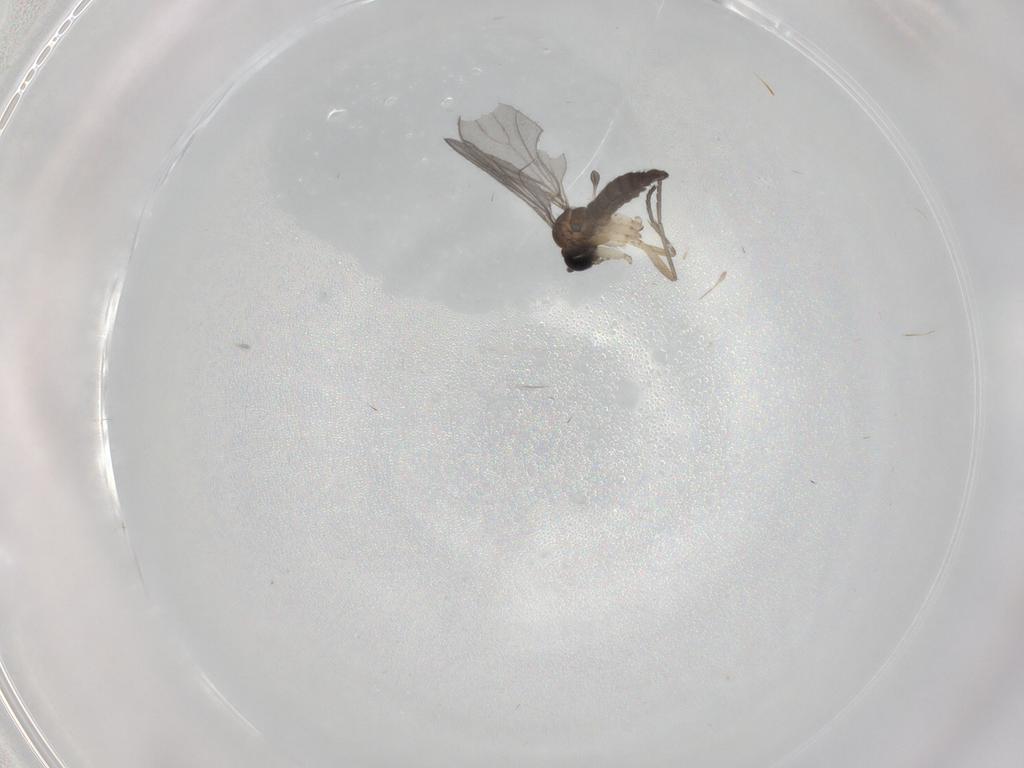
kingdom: Animalia
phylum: Arthropoda
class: Insecta
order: Diptera
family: Sciaridae
